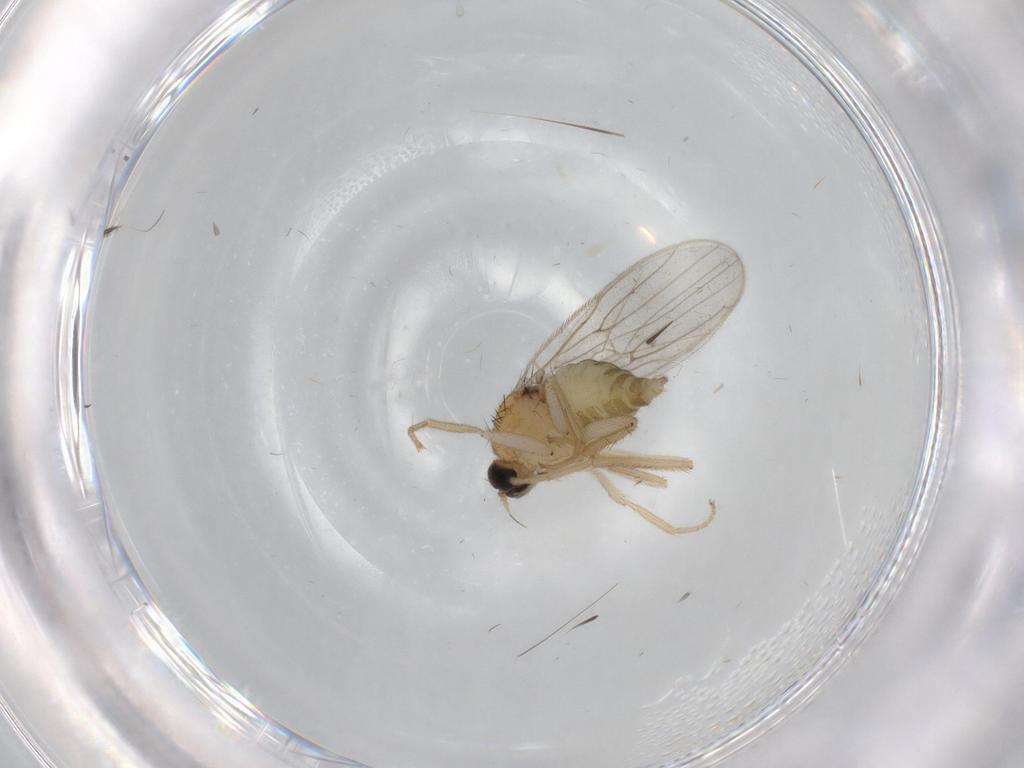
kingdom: Animalia
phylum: Arthropoda
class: Insecta
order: Diptera
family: Hybotidae
